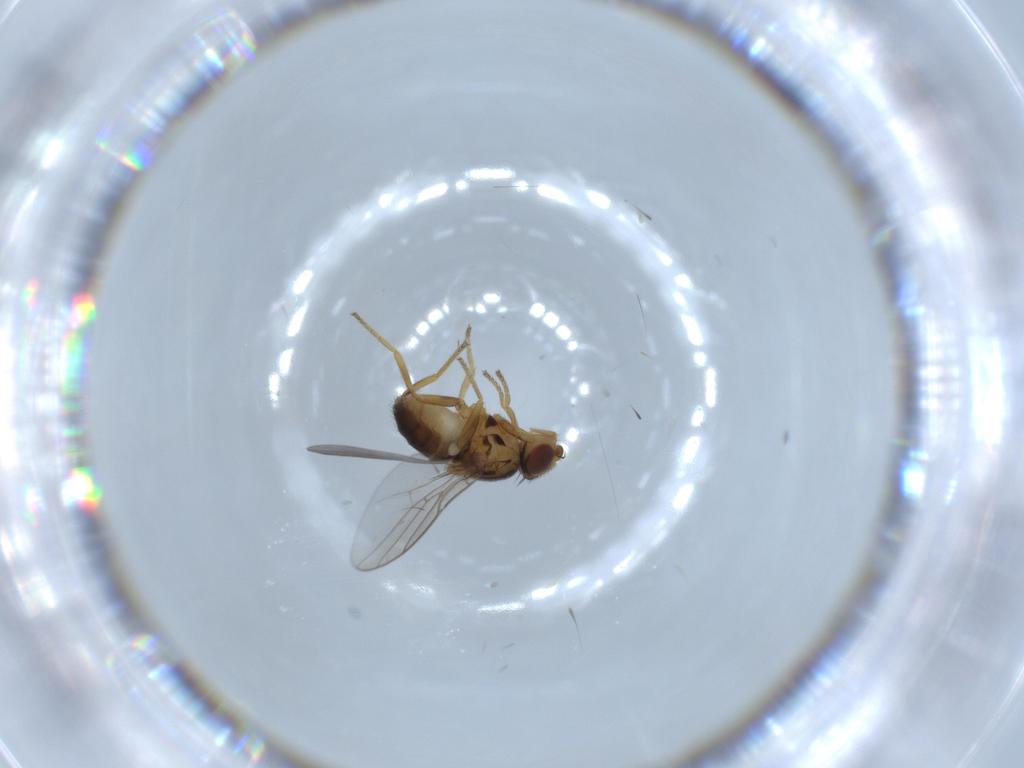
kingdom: Animalia
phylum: Arthropoda
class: Insecta
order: Diptera
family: Chloropidae
